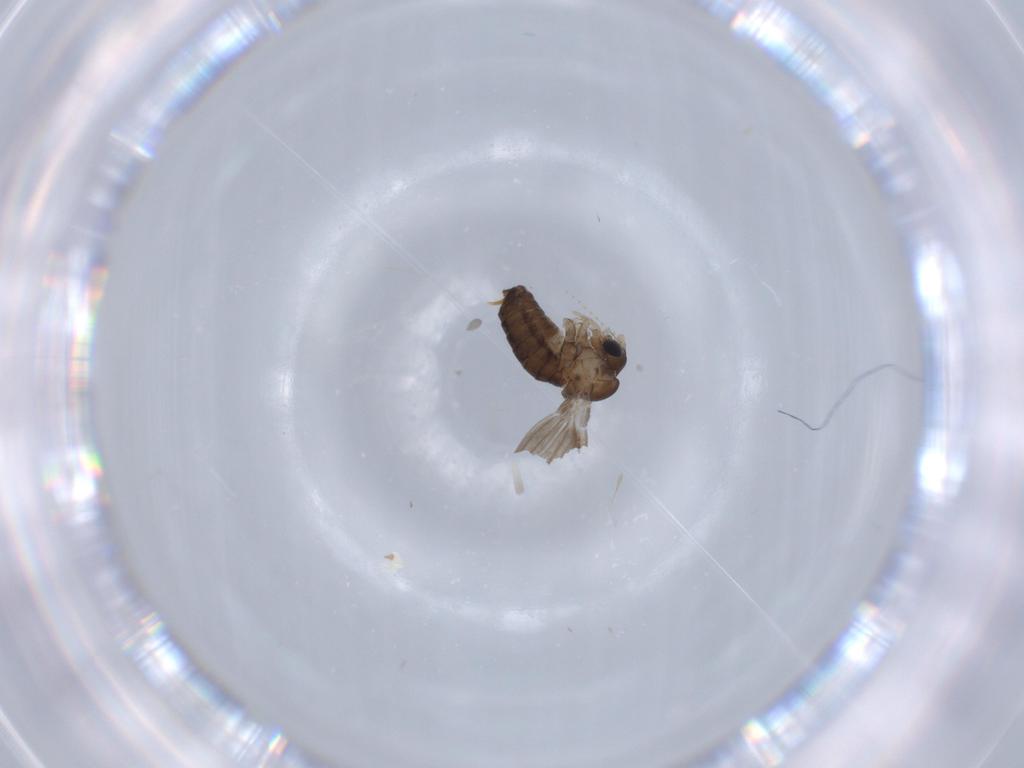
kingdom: Animalia
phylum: Arthropoda
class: Insecta
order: Diptera
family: Psychodidae
